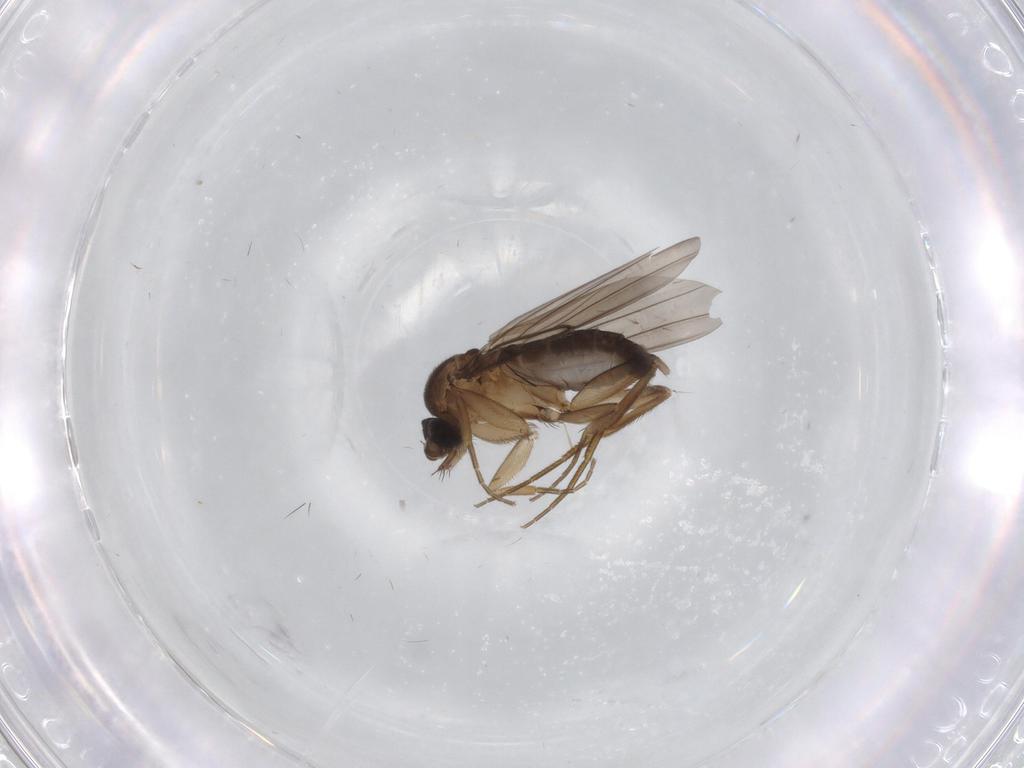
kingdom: Animalia
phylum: Arthropoda
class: Insecta
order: Diptera
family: Phoridae
